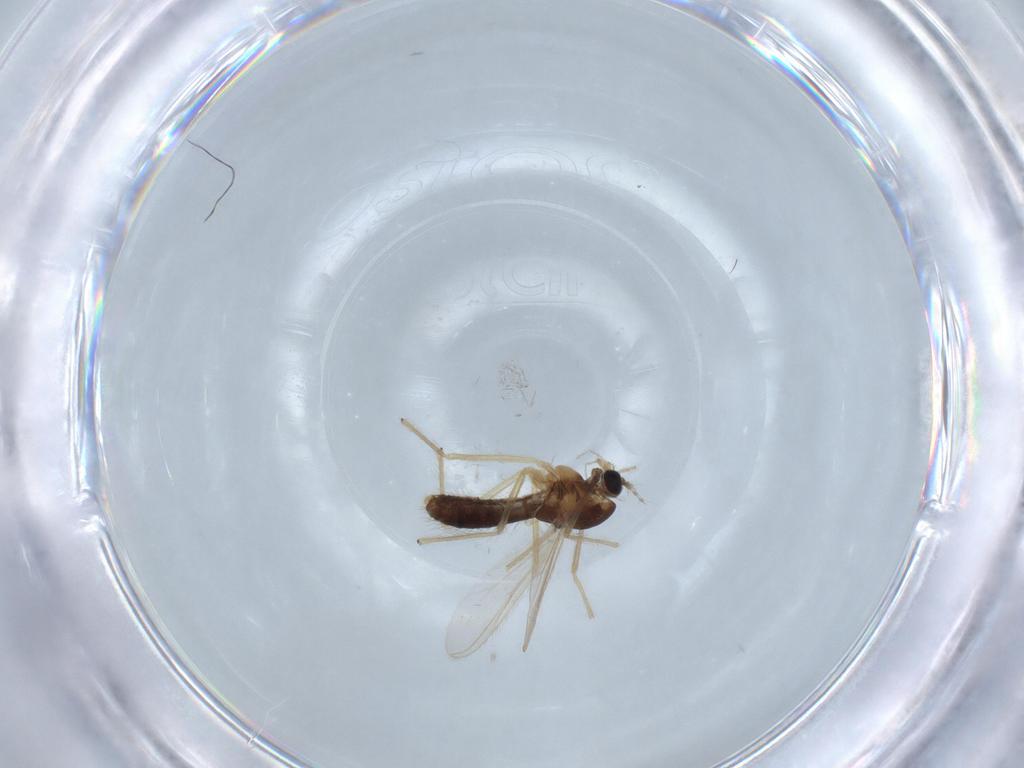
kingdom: Animalia
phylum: Arthropoda
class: Insecta
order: Diptera
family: Chironomidae
